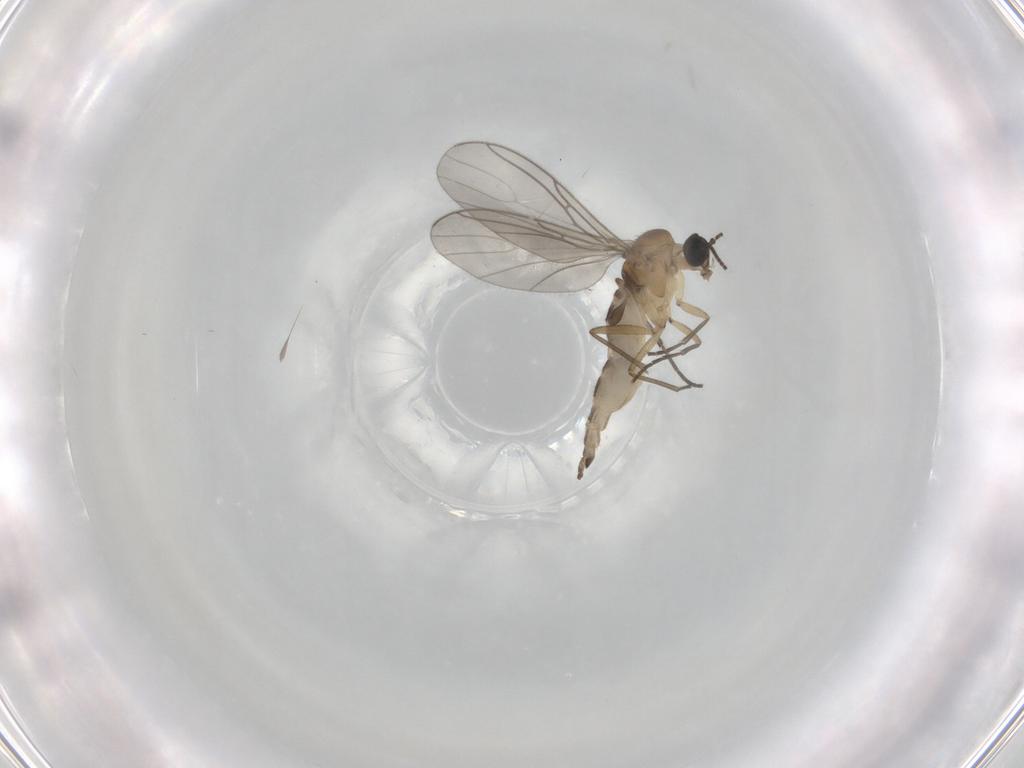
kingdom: Animalia
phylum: Arthropoda
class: Insecta
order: Diptera
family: Sciaridae
